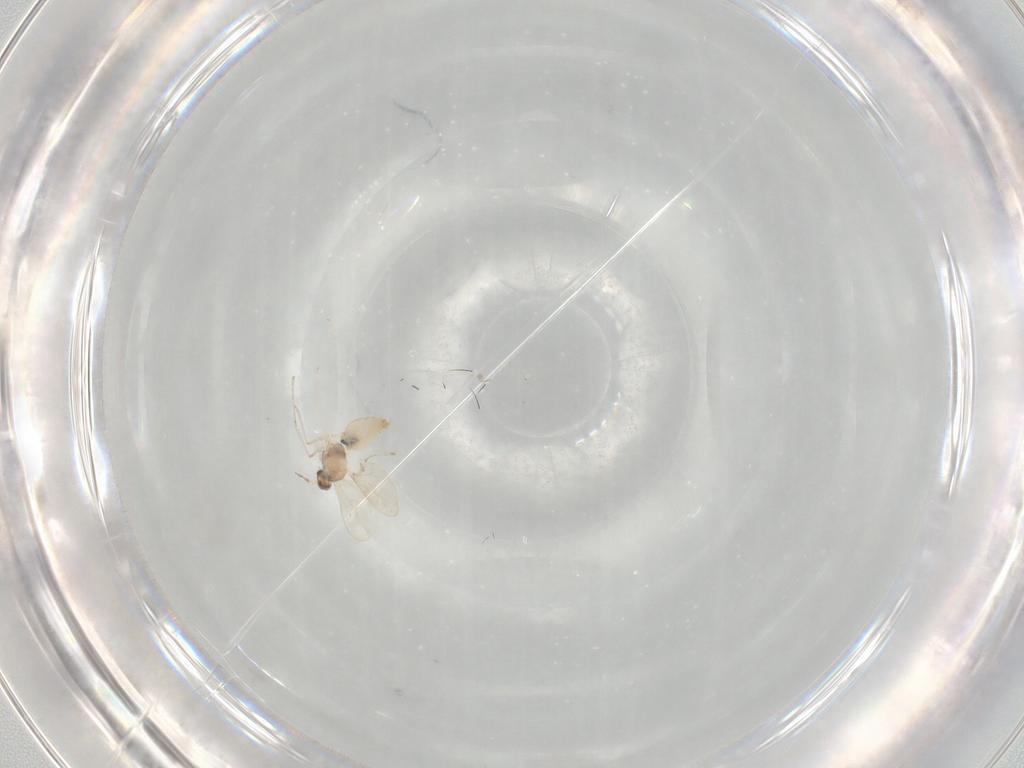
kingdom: Animalia
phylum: Arthropoda
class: Insecta
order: Diptera
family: Cecidomyiidae
